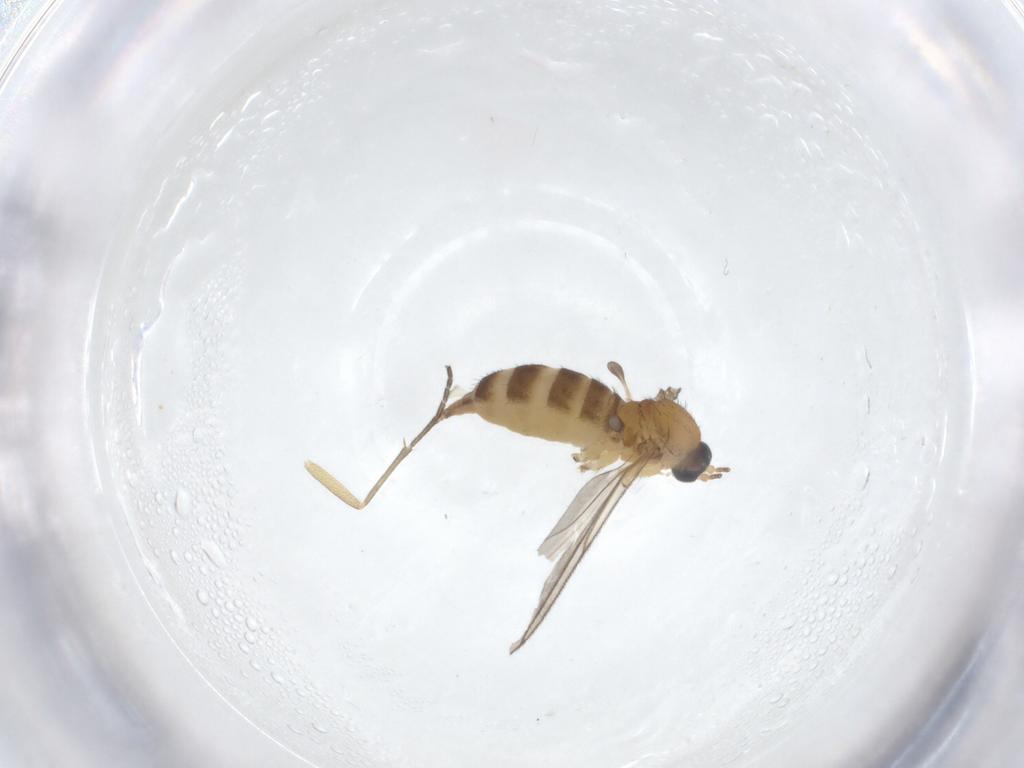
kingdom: Animalia
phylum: Arthropoda
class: Insecta
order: Diptera
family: Sciaridae
